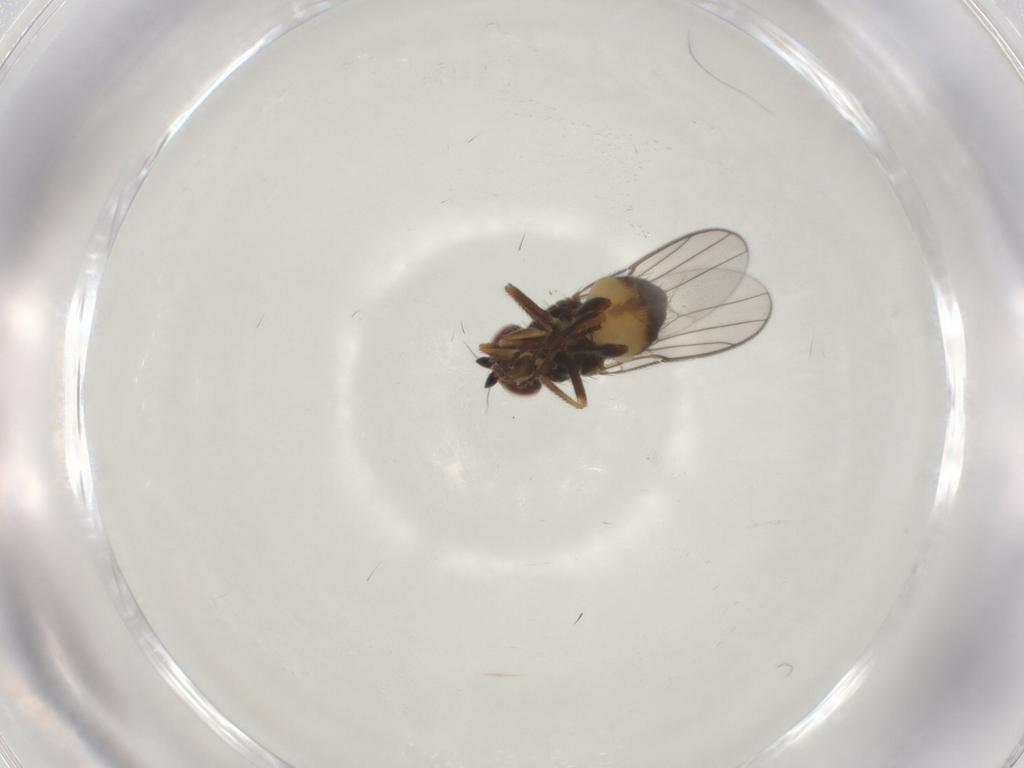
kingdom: Animalia
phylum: Arthropoda
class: Insecta
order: Diptera
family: Chloropidae
